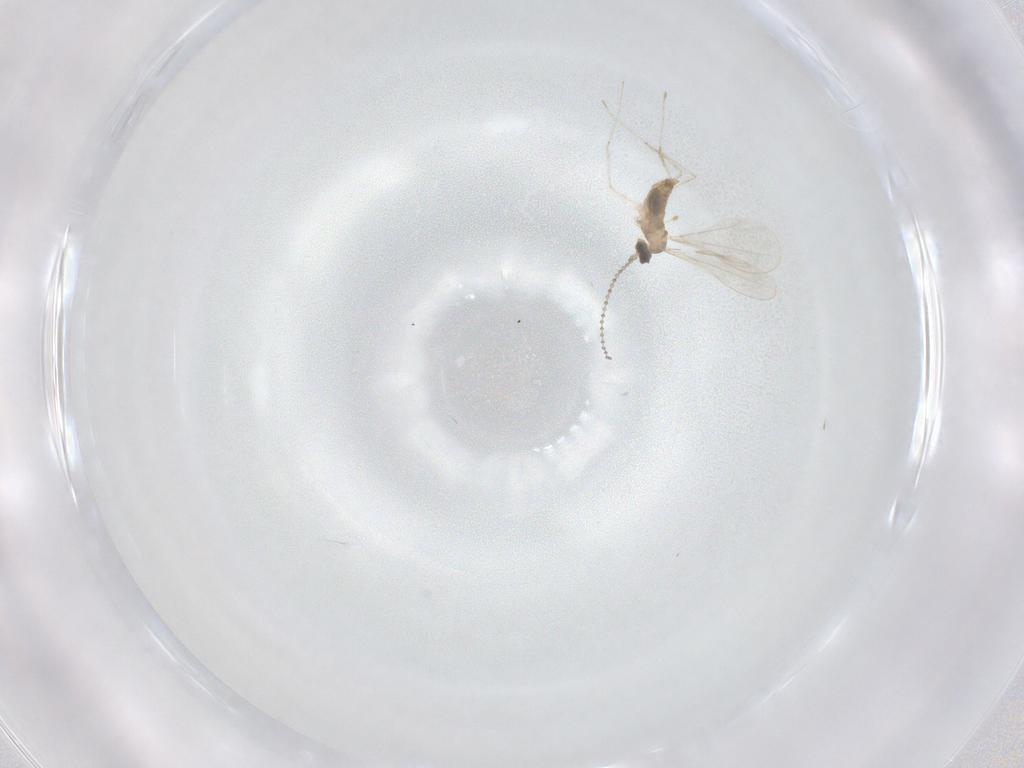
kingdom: Animalia
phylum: Arthropoda
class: Insecta
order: Diptera
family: Cecidomyiidae
